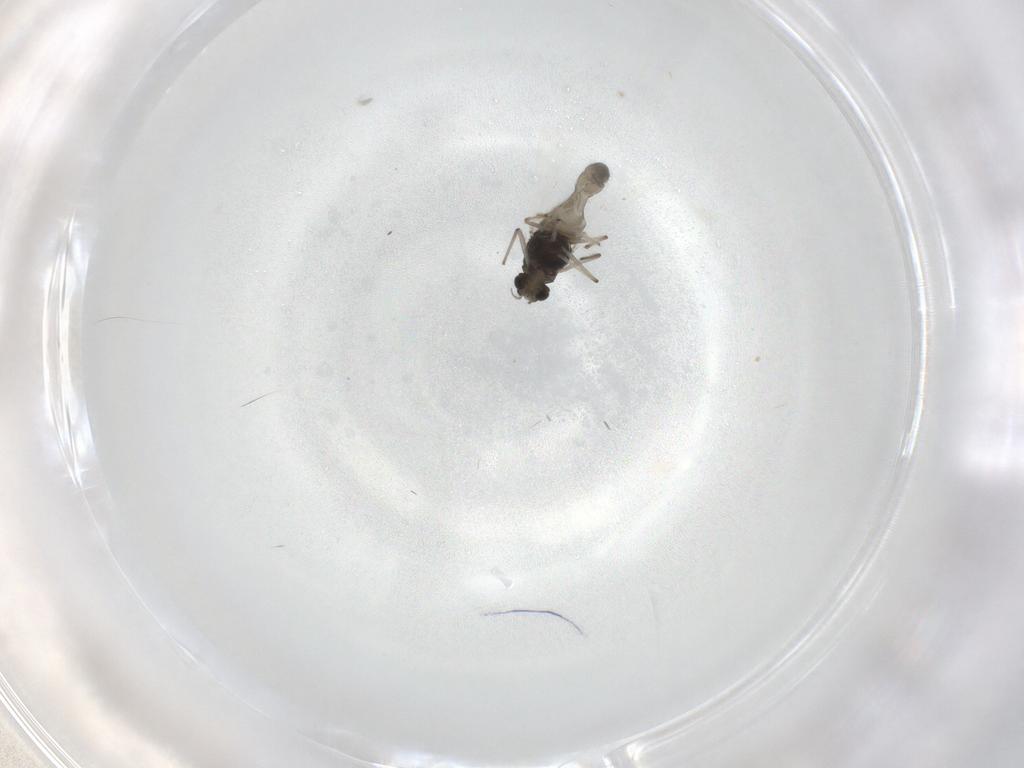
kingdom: Animalia
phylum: Arthropoda
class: Insecta
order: Diptera
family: Chironomidae
